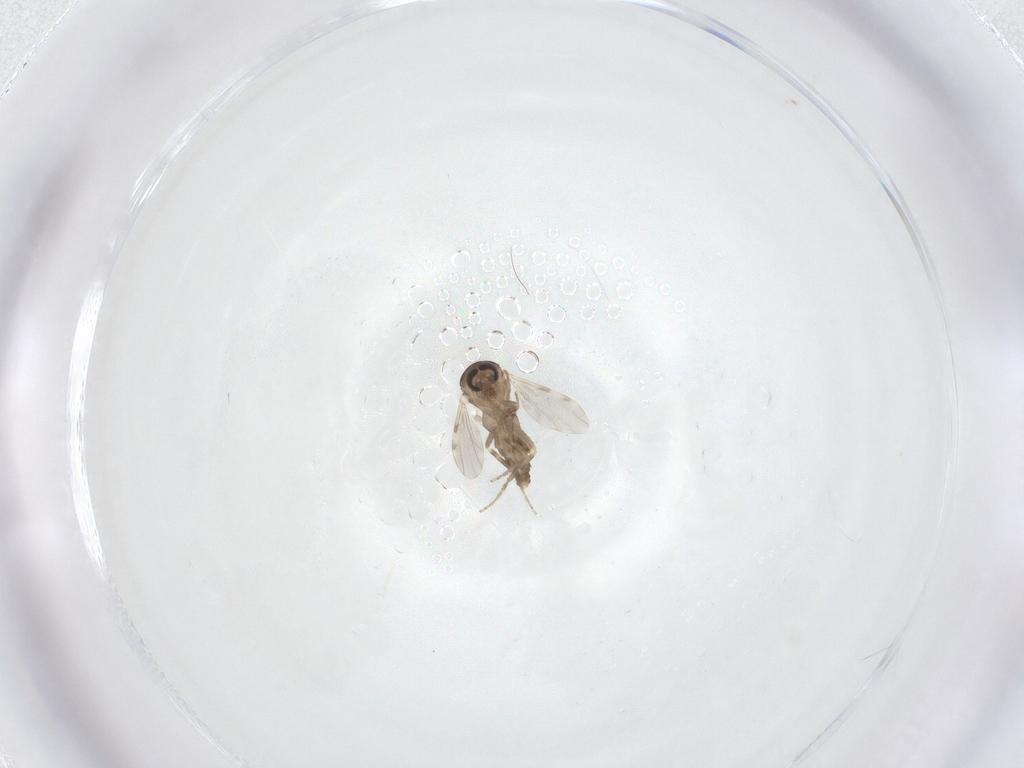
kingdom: Animalia
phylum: Arthropoda
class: Insecta
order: Diptera
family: Ceratopogonidae
